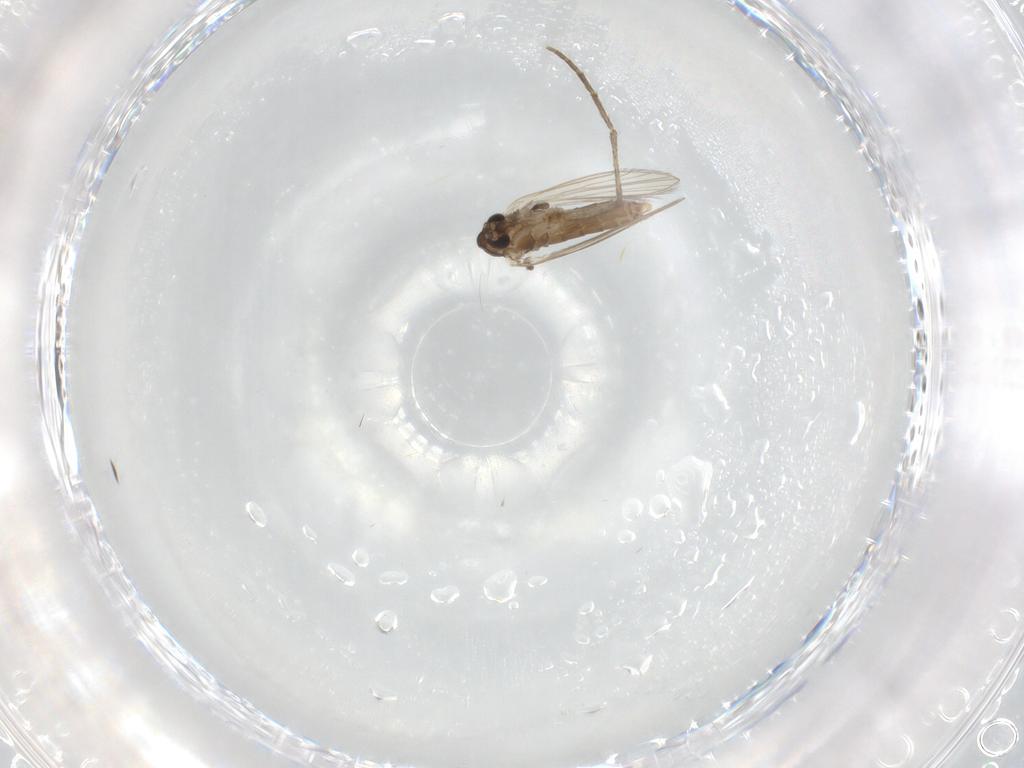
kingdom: Animalia
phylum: Arthropoda
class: Insecta
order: Diptera
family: Psychodidae
